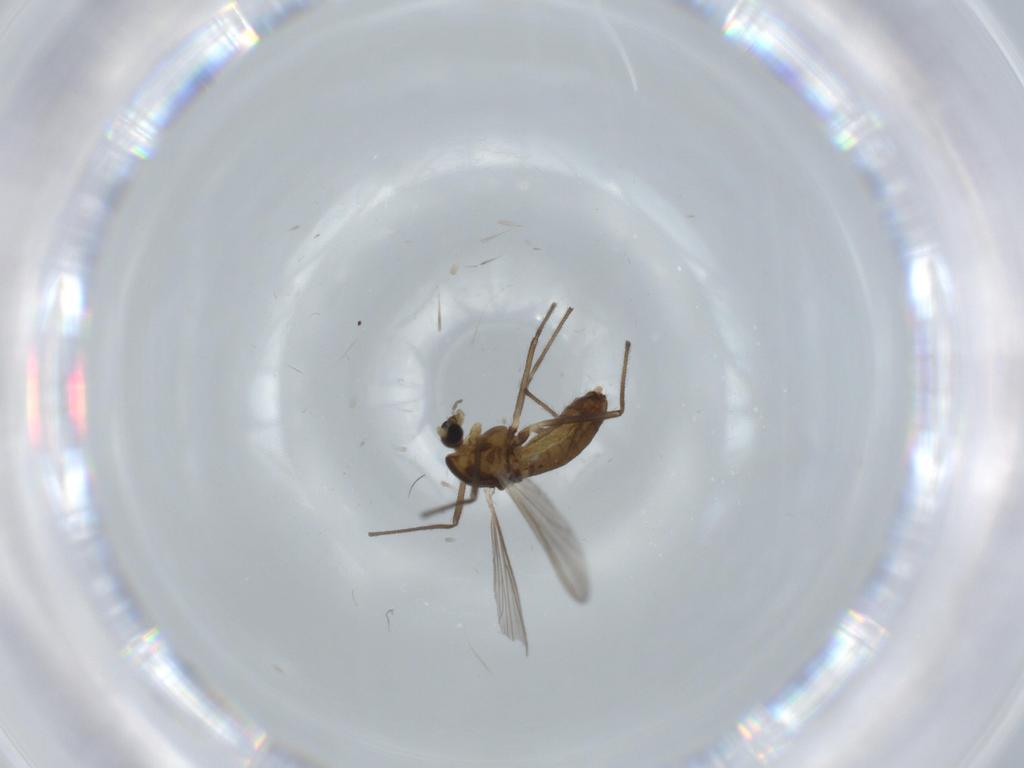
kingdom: Animalia
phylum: Arthropoda
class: Insecta
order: Diptera
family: Chironomidae
